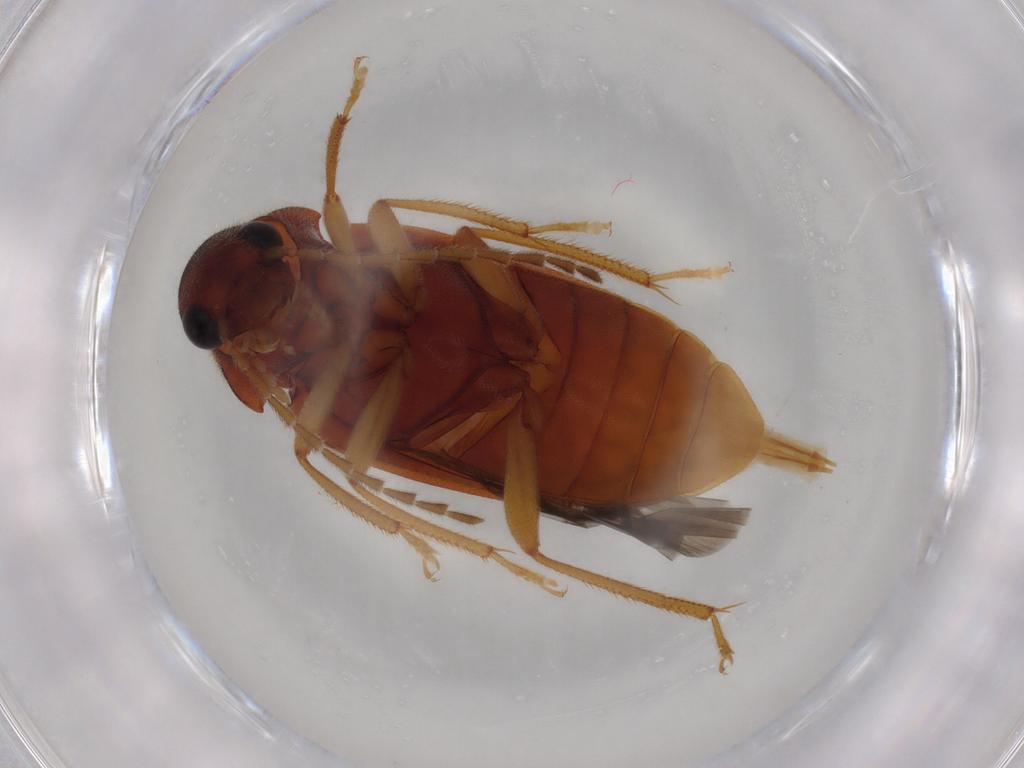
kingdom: Animalia
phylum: Arthropoda
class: Insecta
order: Coleoptera
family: Ptilodactylidae
